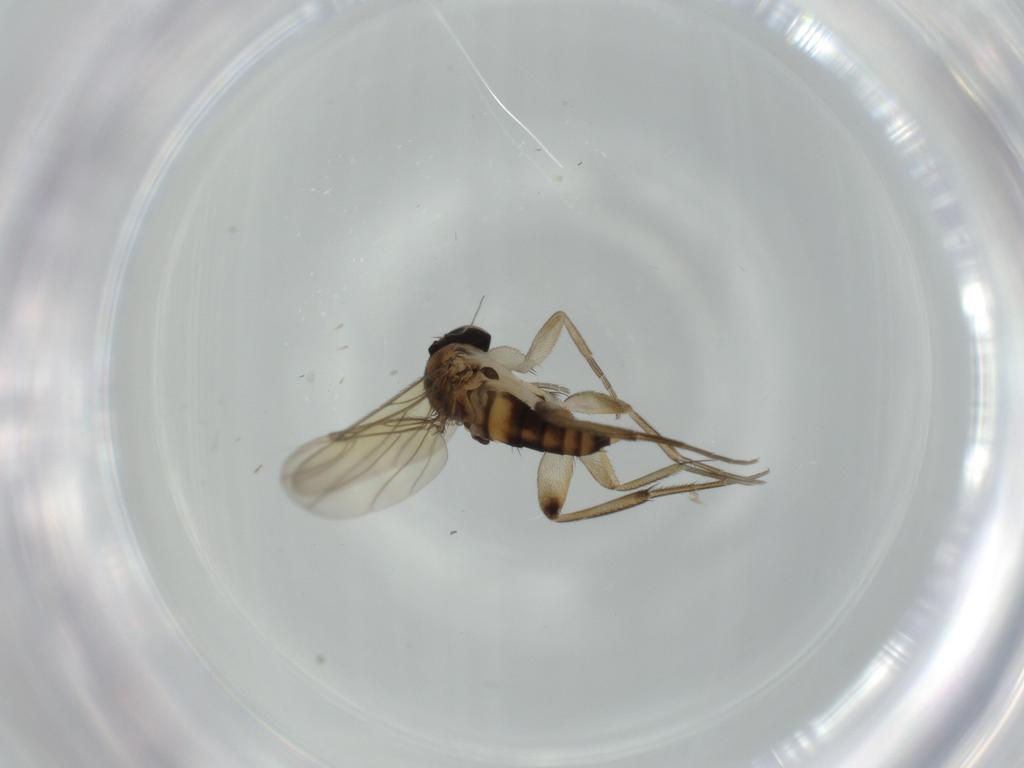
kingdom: Animalia
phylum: Arthropoda
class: Insecta
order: Diptera
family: Phoridae
